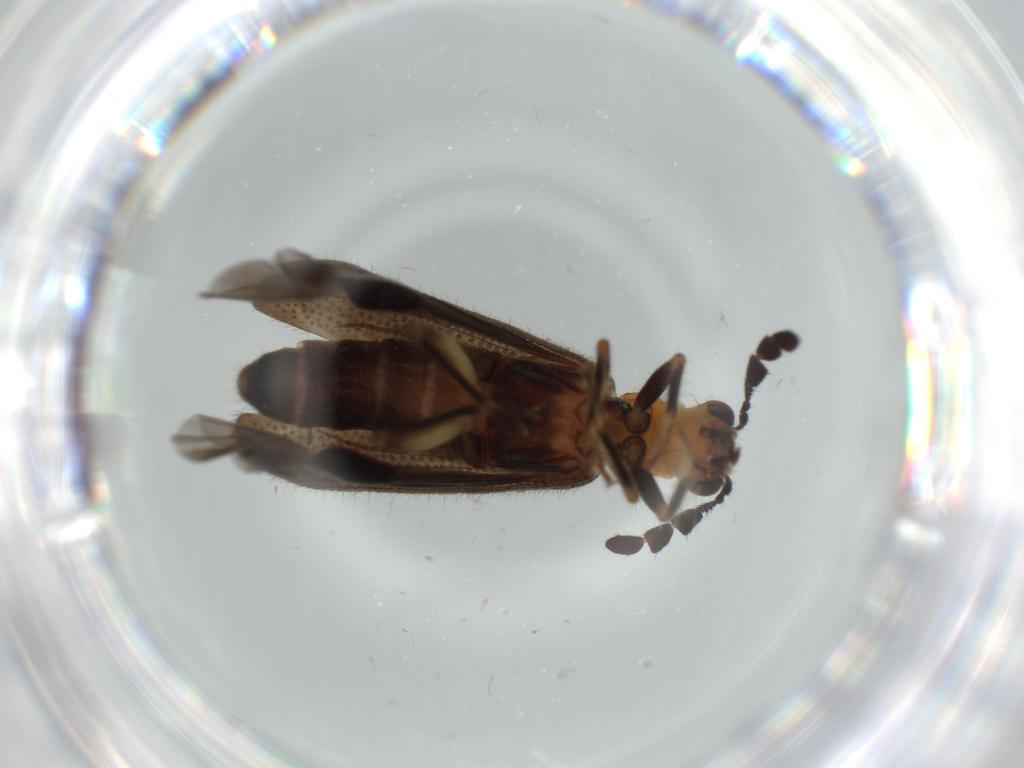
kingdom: Animalia
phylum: Arthropoda
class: Insecta
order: Coleoptera
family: Cleridae
